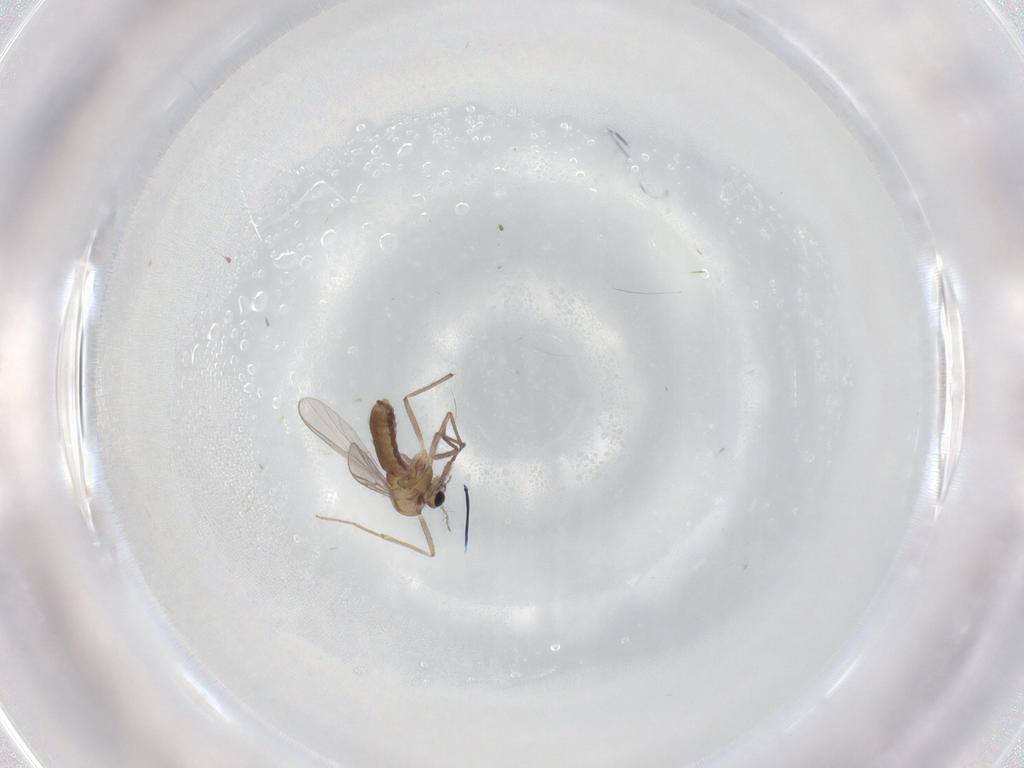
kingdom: Animalia
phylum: Arthropoda
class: Insecta
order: Diptera
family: Chironomidae
